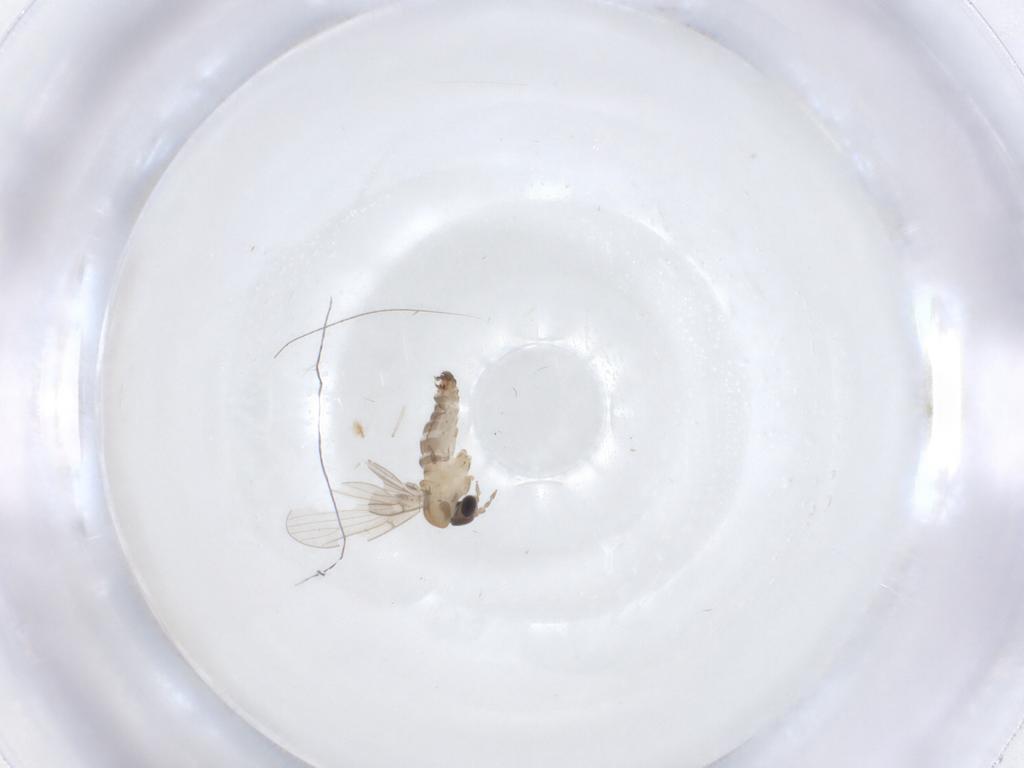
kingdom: Animalia
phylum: Arthropoda
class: Insecta
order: Diptera
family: Psychodidae
